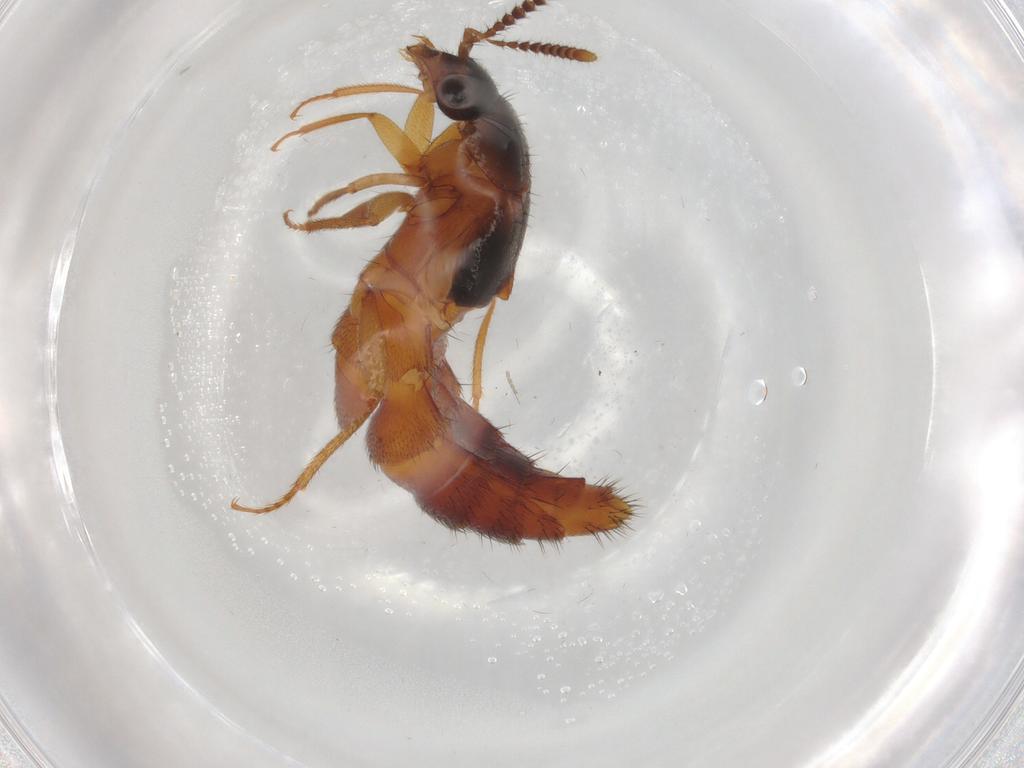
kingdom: Animalia
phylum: Arthropoda
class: Insecta
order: Coleoptera
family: Staphylinidae
